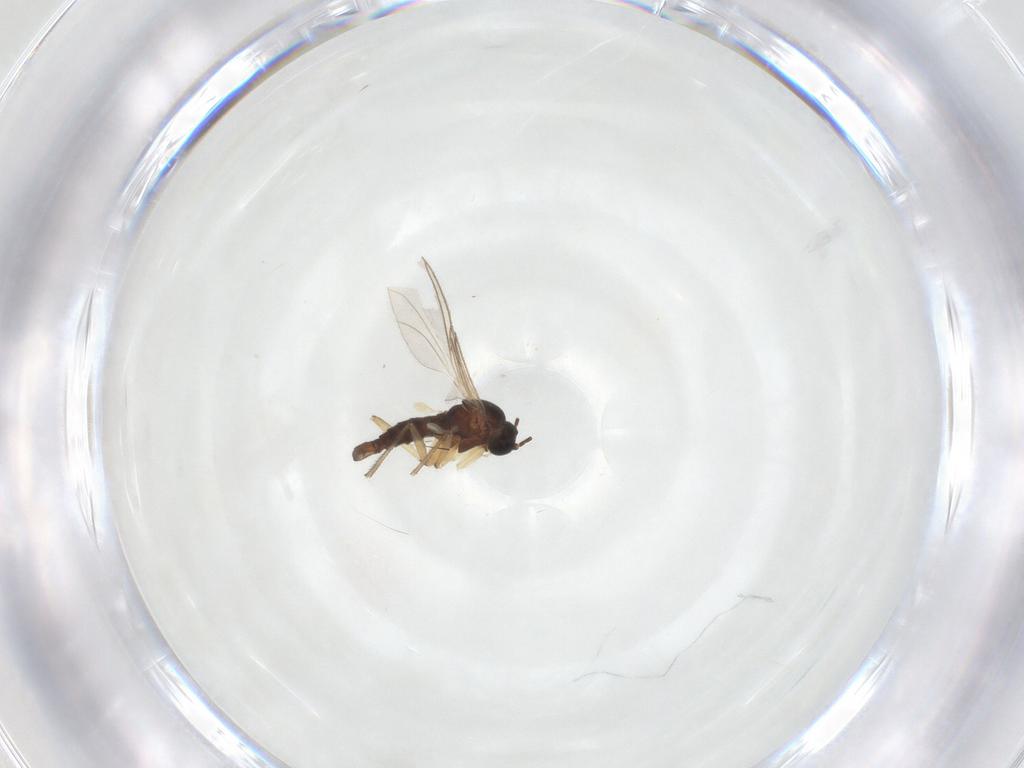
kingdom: Animalia
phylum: Arthropoda
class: Insecta
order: Diptera
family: Sciaridae
